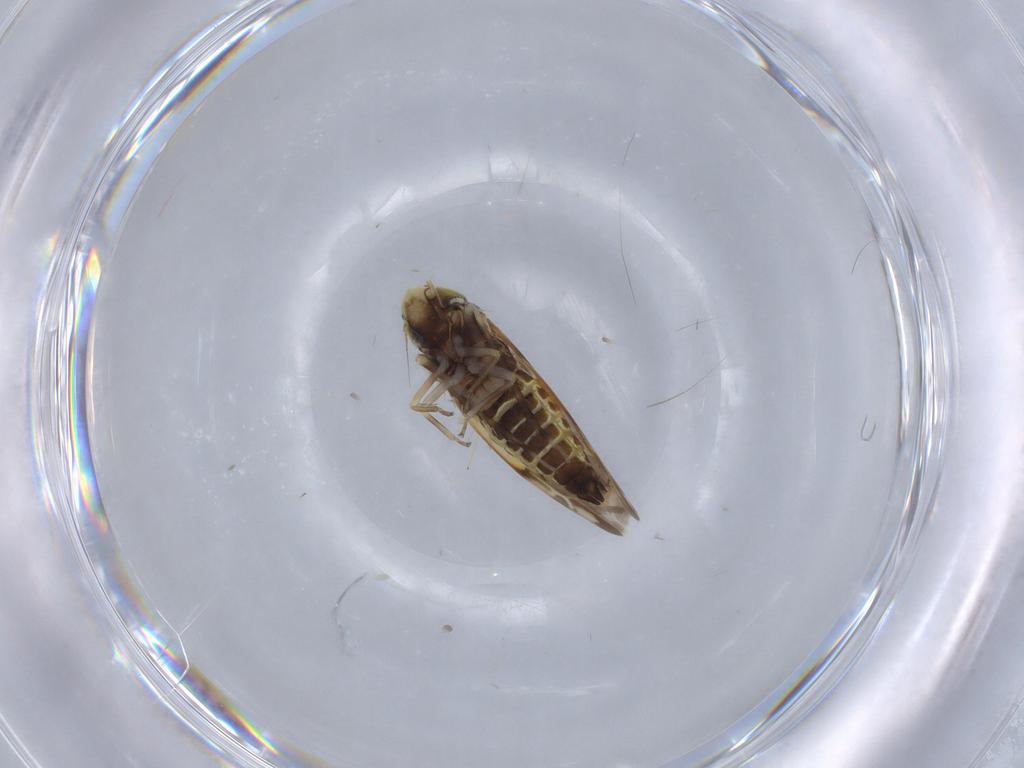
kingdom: Animalia
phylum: Arthropoda
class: Insecta
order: Hemiptera
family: Cicadellidae
